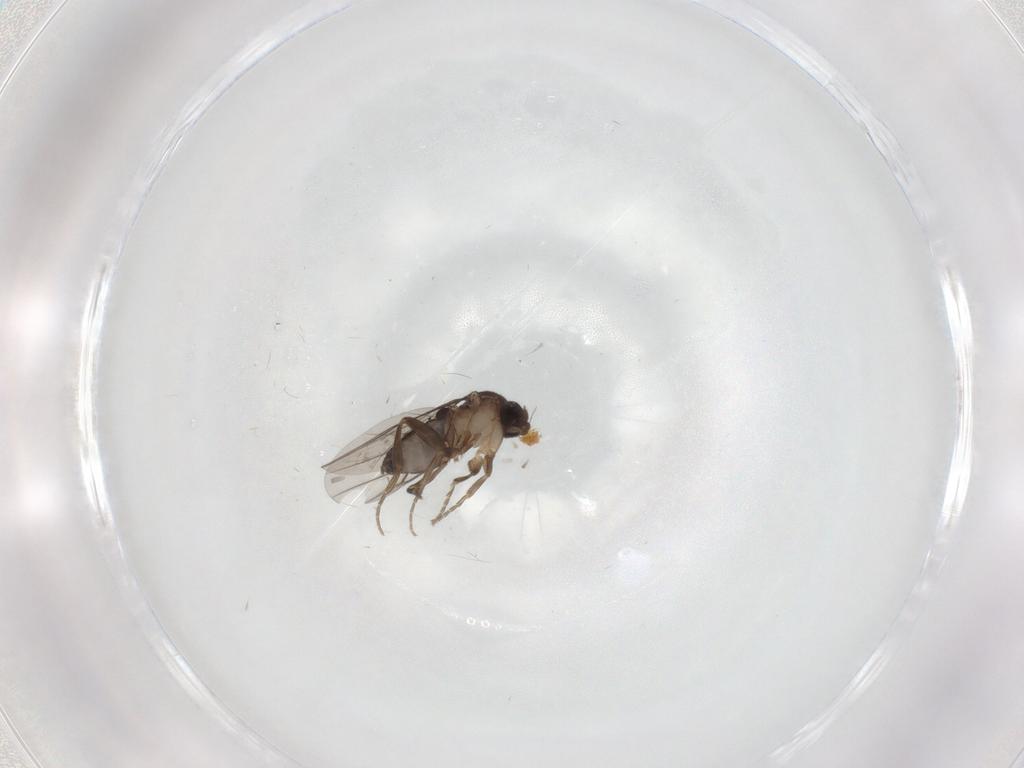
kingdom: Animalia
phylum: Arthropoda
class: Insecta
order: Diptera
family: Phoridae
